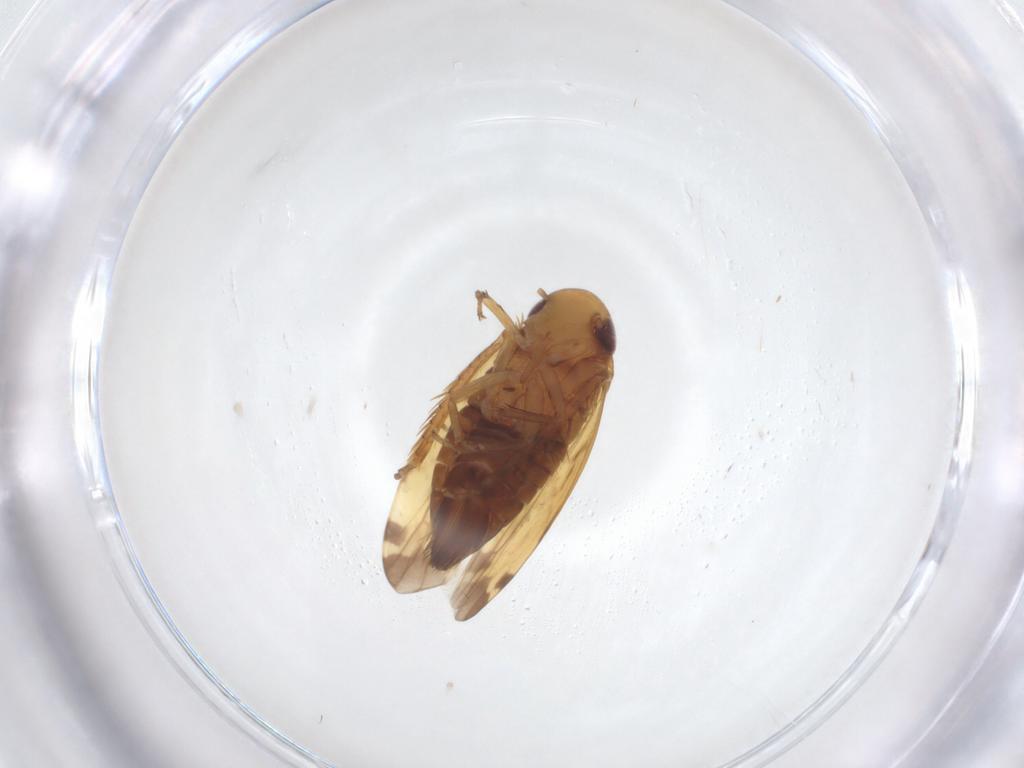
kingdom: Animalia
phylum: Arthropoda
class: Insecta
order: Hemiptera
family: Cicadellidae
